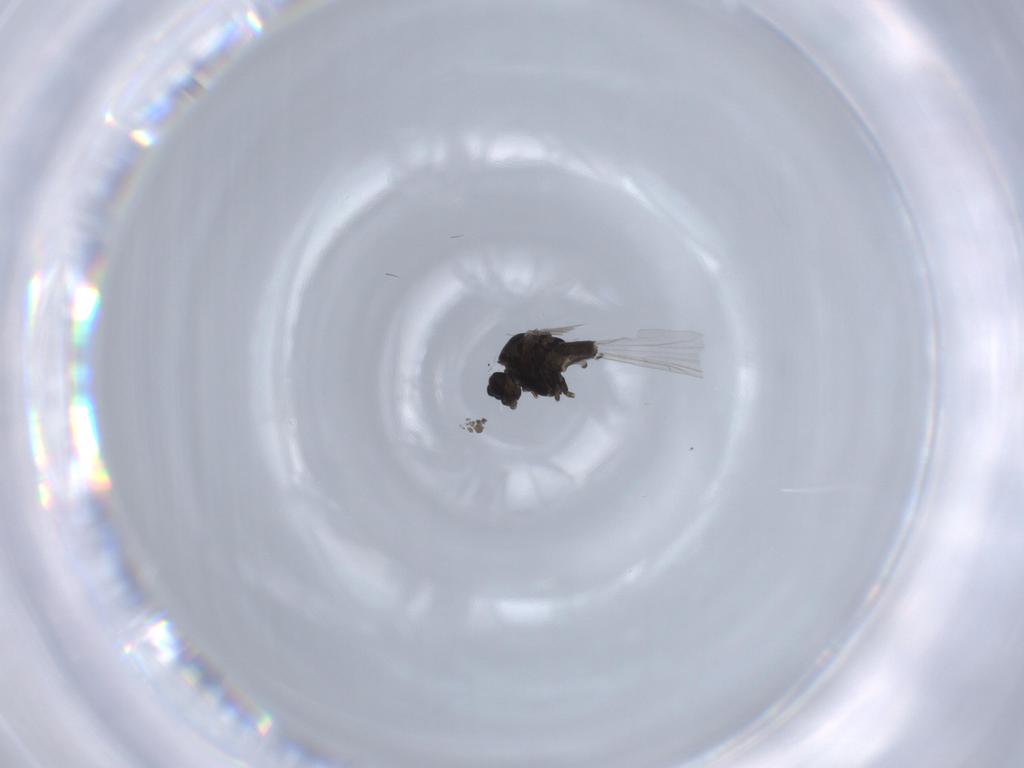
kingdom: Animalia
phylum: Arthropoda
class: Insecta
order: Diptera
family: Chironomidae
